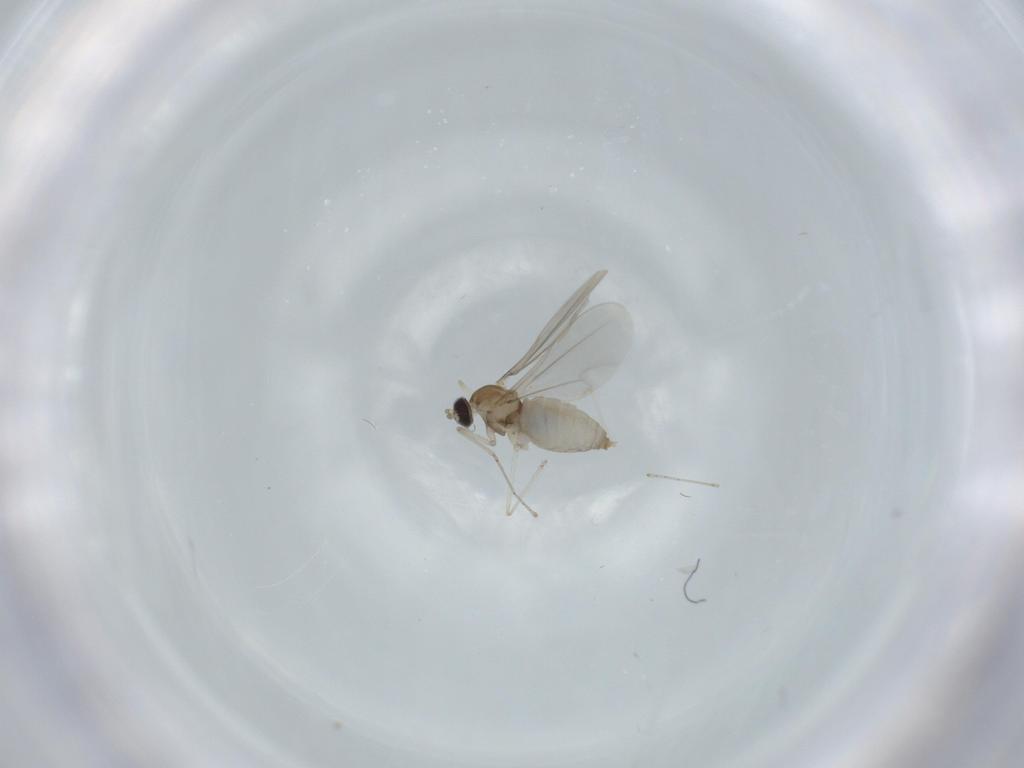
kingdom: Animalia
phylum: Arthropoda
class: Insecta
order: Diptera
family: Cecidomyiidae
